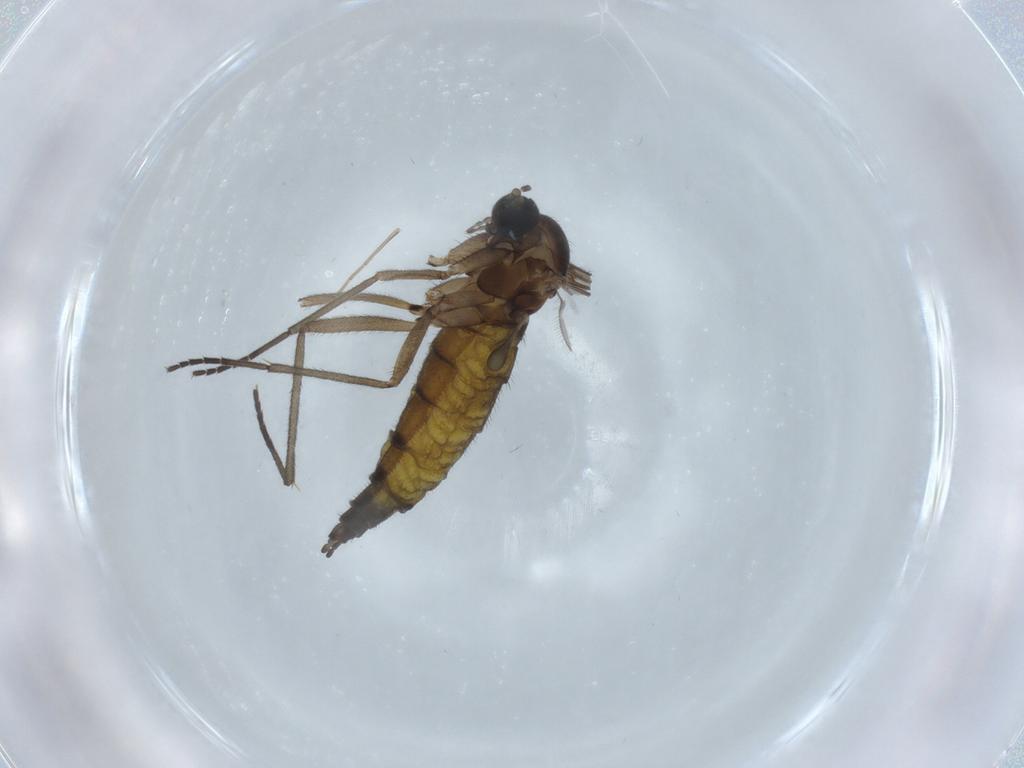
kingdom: Animalia
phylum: Arthropoda
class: Insecta
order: Diptera
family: Sciaridae
